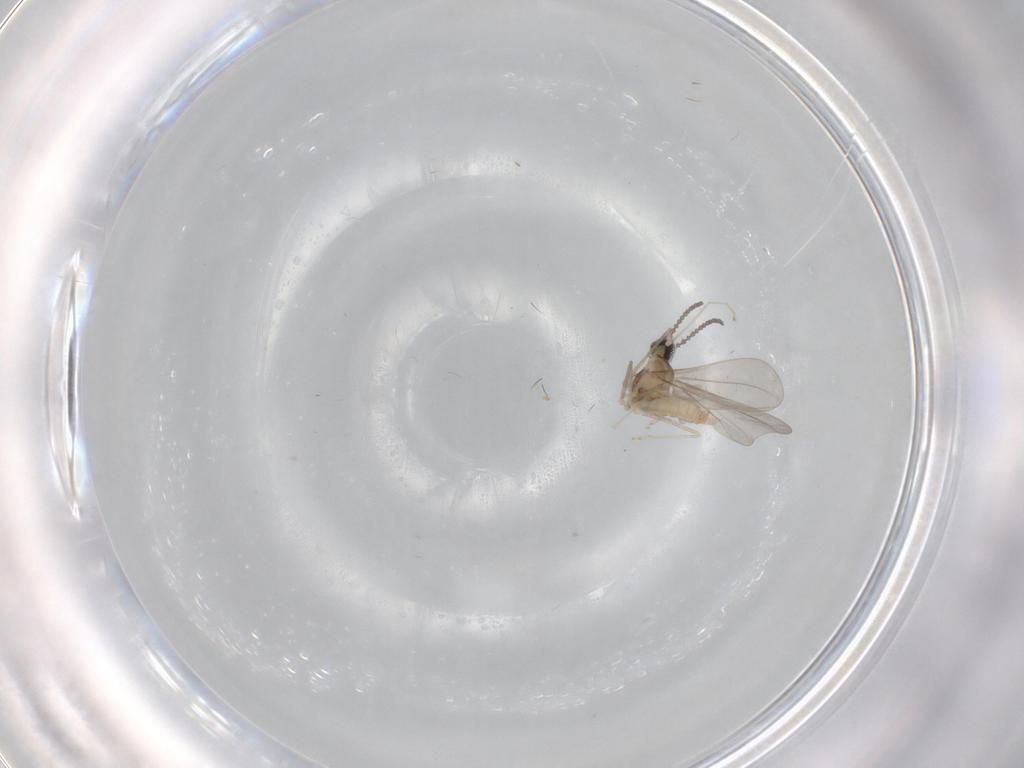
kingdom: Animalia
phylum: Arthropoda
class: Insecta
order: Diptera
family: Cecidomyiidae
